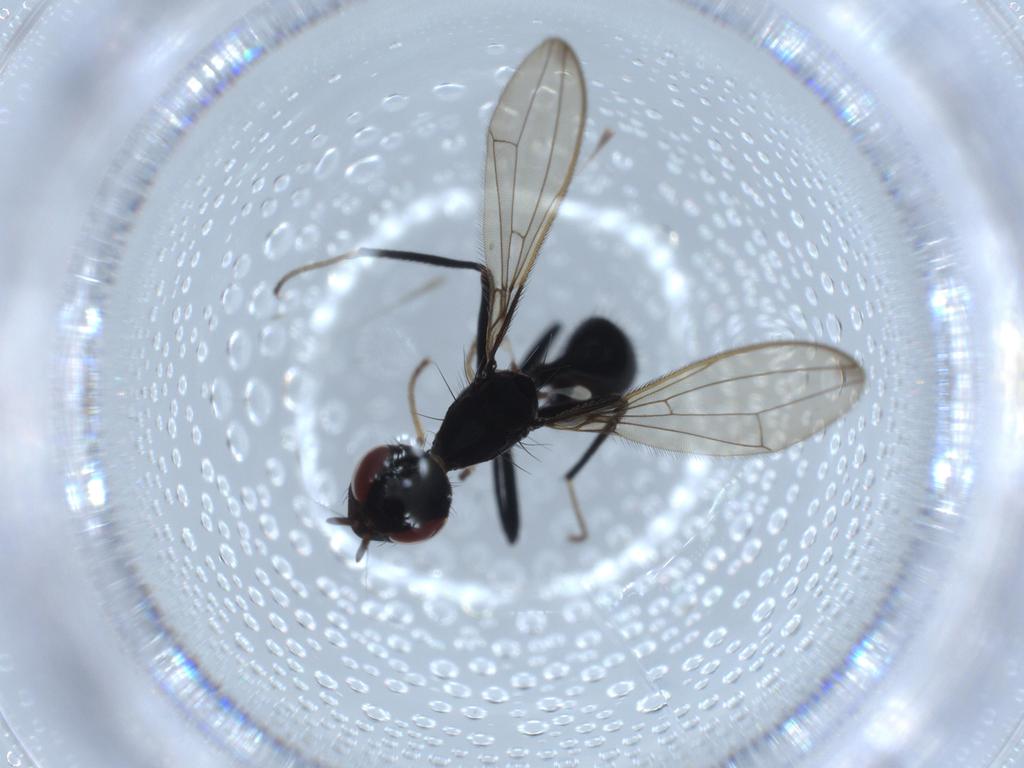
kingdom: Animalia
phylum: Arthropoda
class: Insecta
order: Diptera
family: Richardiidae
